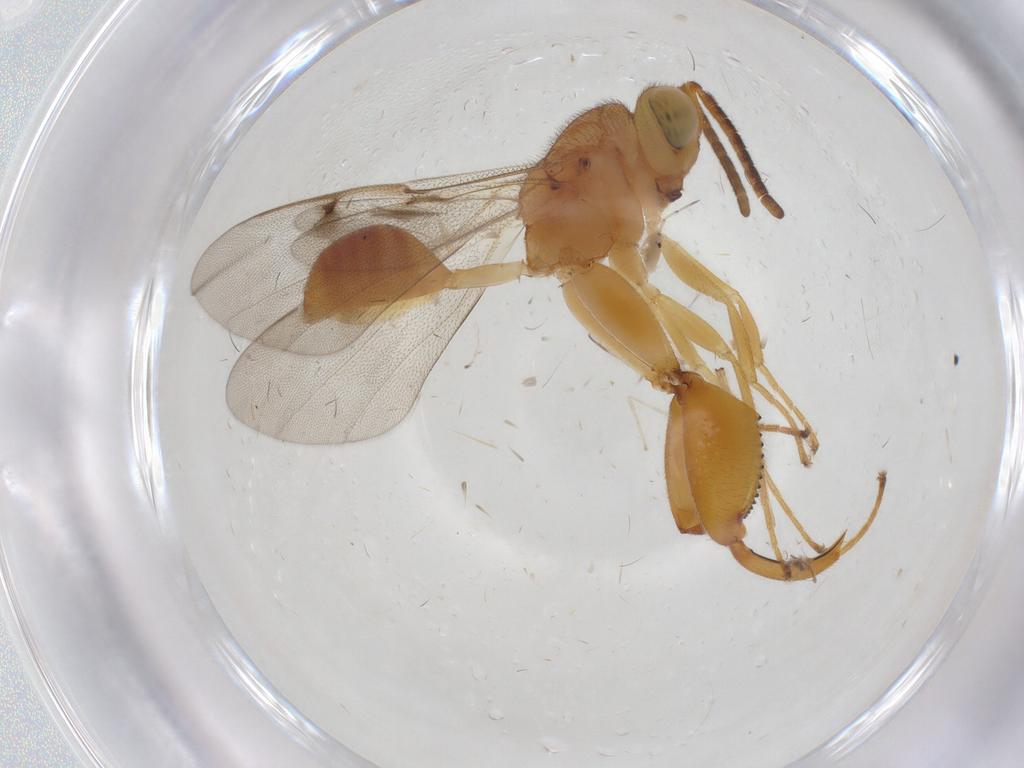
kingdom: Animalia
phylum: Arthropoda
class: Insecta
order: Hymenoptera
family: Chalcididae
